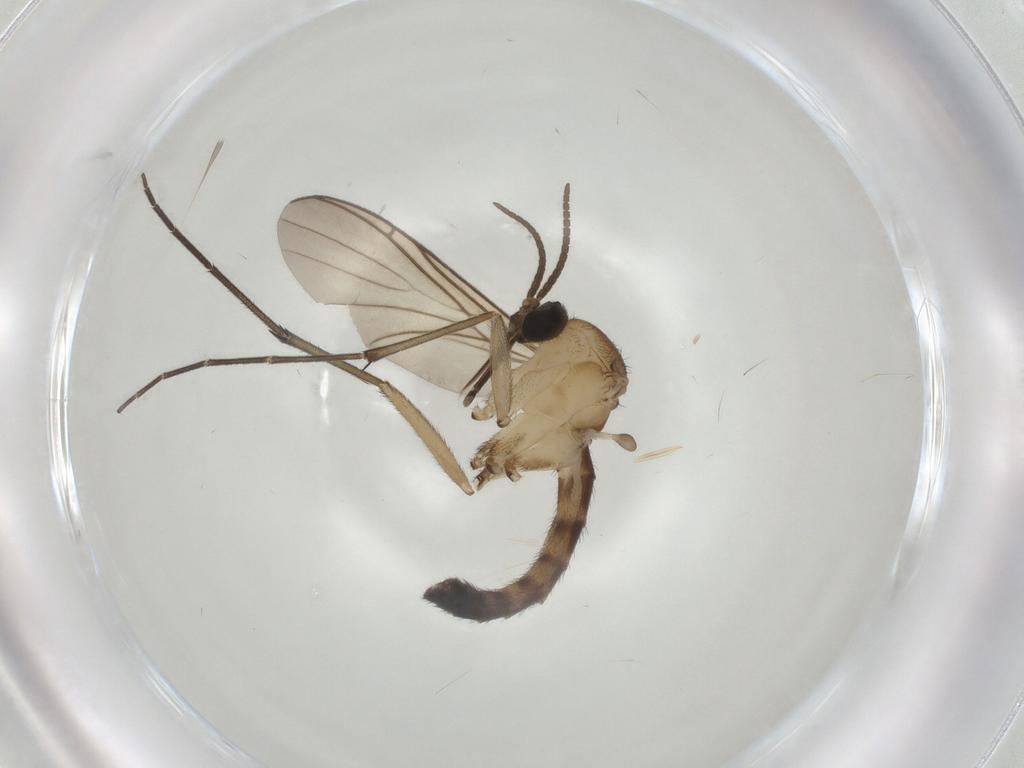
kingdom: Animalia
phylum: Arthropoda
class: Insecta
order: Diptera
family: Keroplatidae
